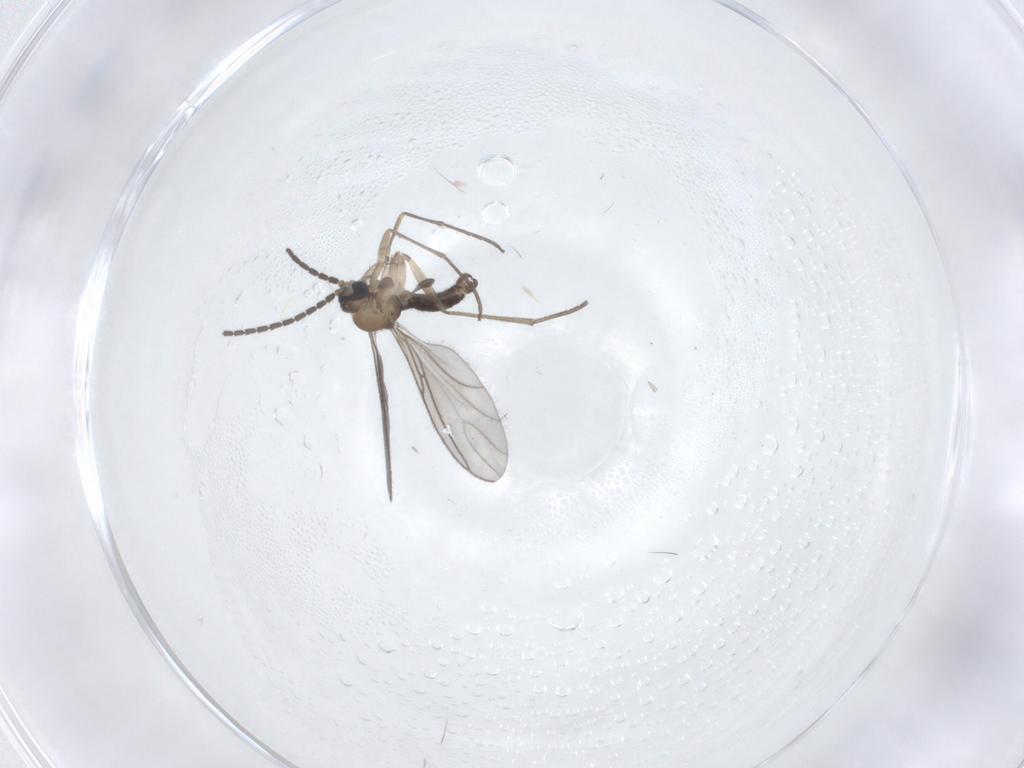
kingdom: Animalia
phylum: Arthropoda
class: Insecta
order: Diptera
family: Sciaridae
